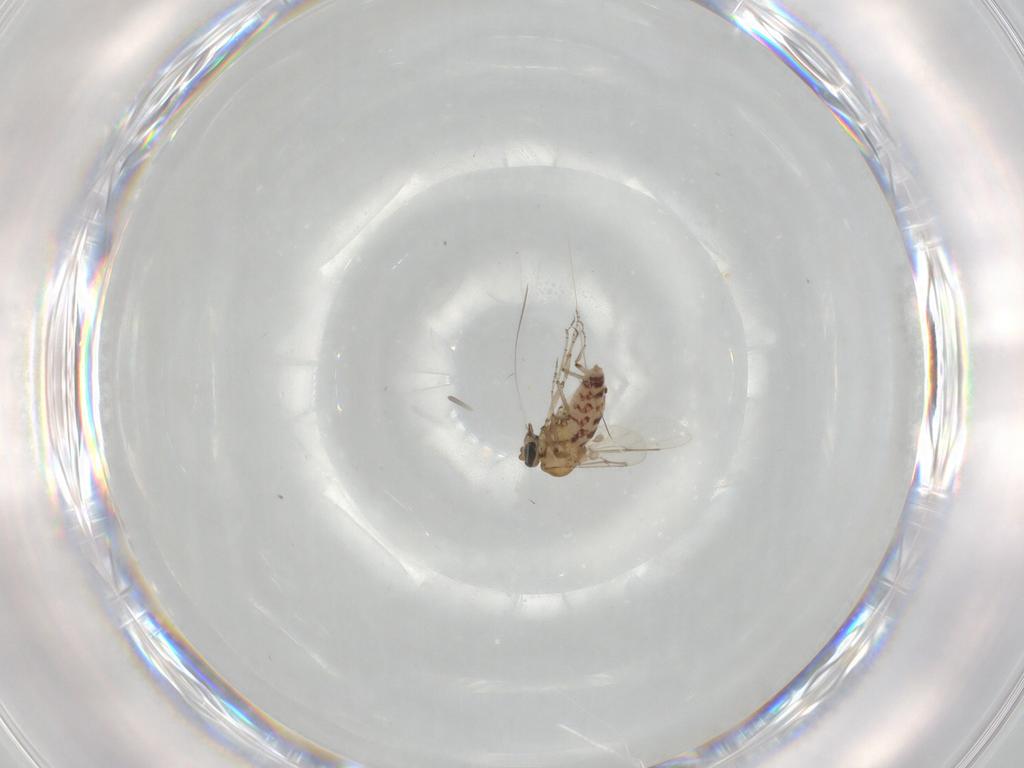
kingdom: Animalia
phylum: Arthropoda
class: Insecta
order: Diptera
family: Ceratopogonidae
